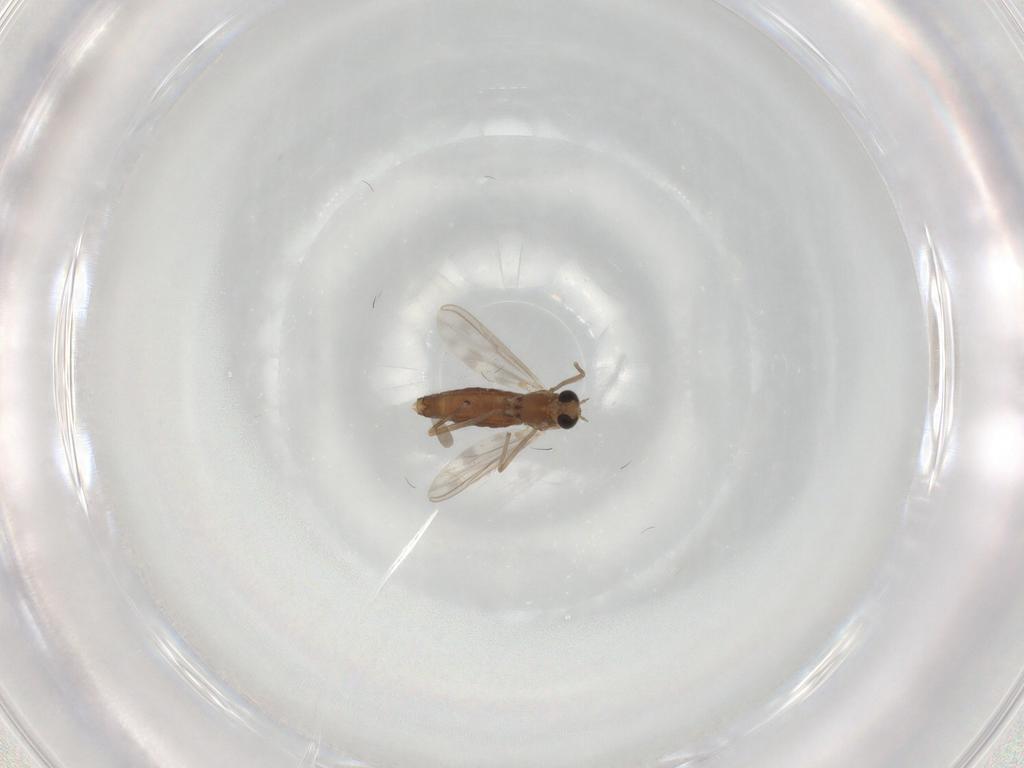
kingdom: Animalia
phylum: Arthropoda
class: Insecta
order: Diptera
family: Chironomidae
